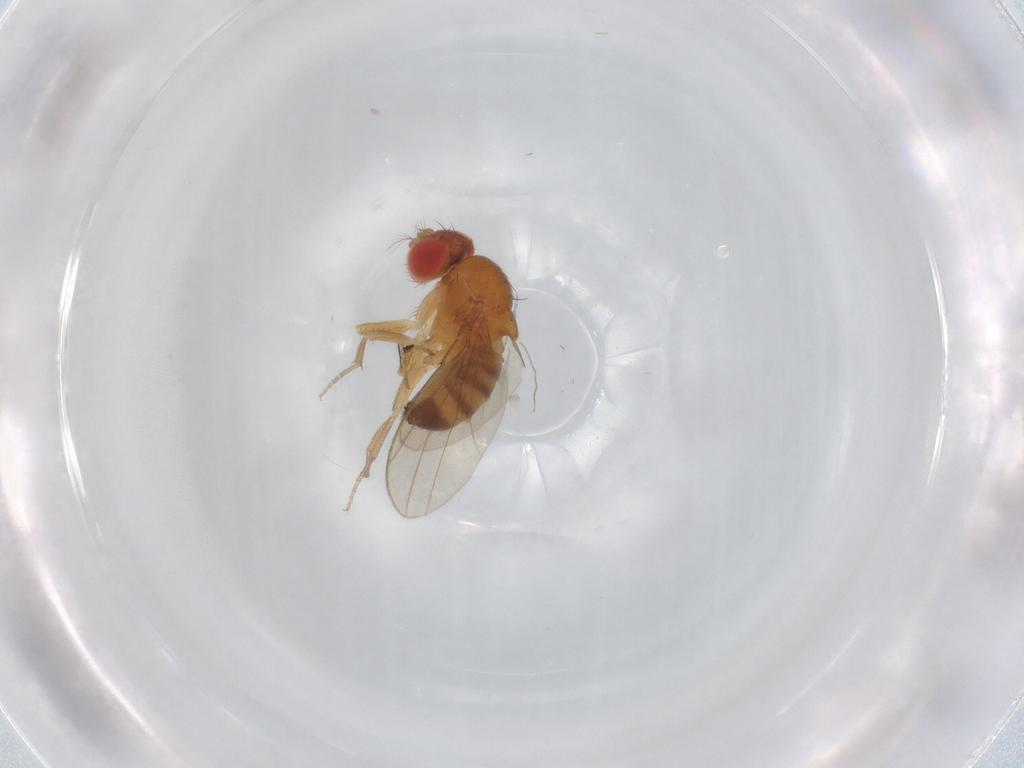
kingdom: Animalia
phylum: Arthropoda
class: Insecta
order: Diptera
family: Drosophilidae
